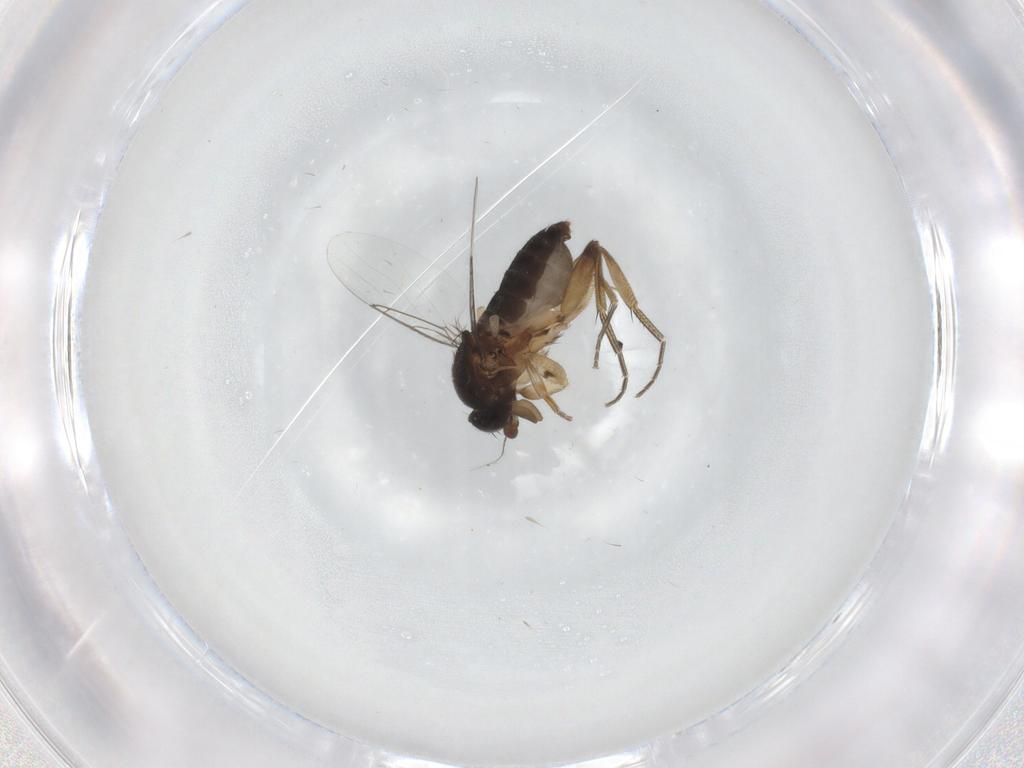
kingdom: Animalia
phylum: Arthropoda
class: Insecta
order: Diptera
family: Phoridae
